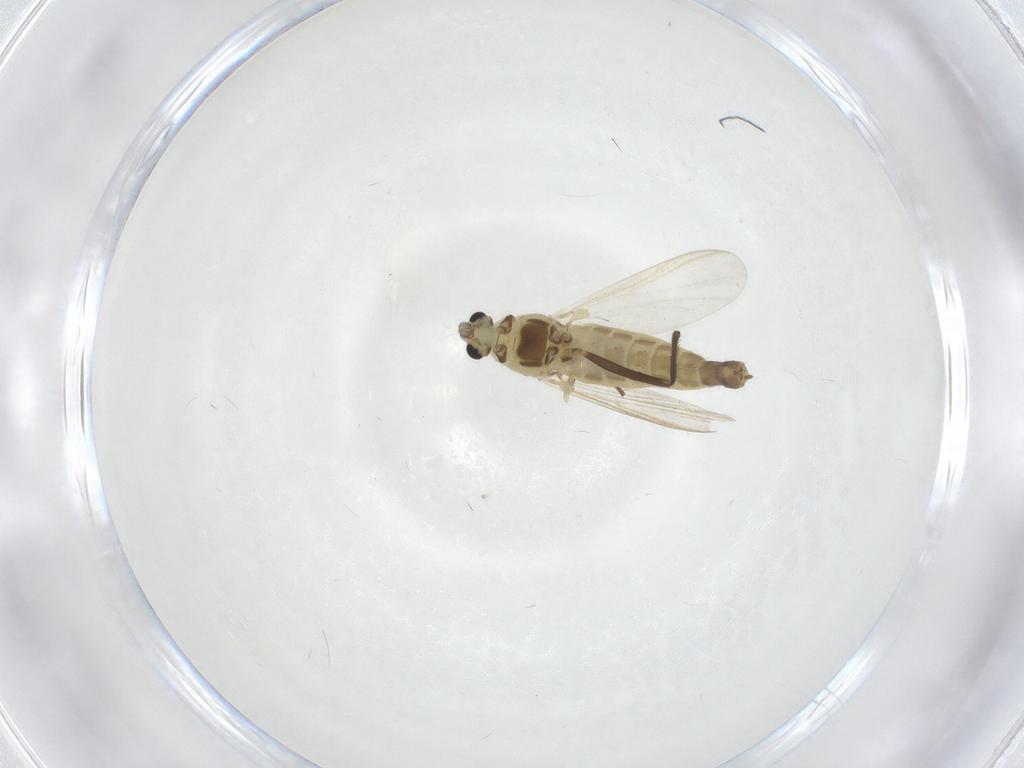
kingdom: Animalia
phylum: Arthropoda
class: Insecta
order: Diptera
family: Chironomidae
